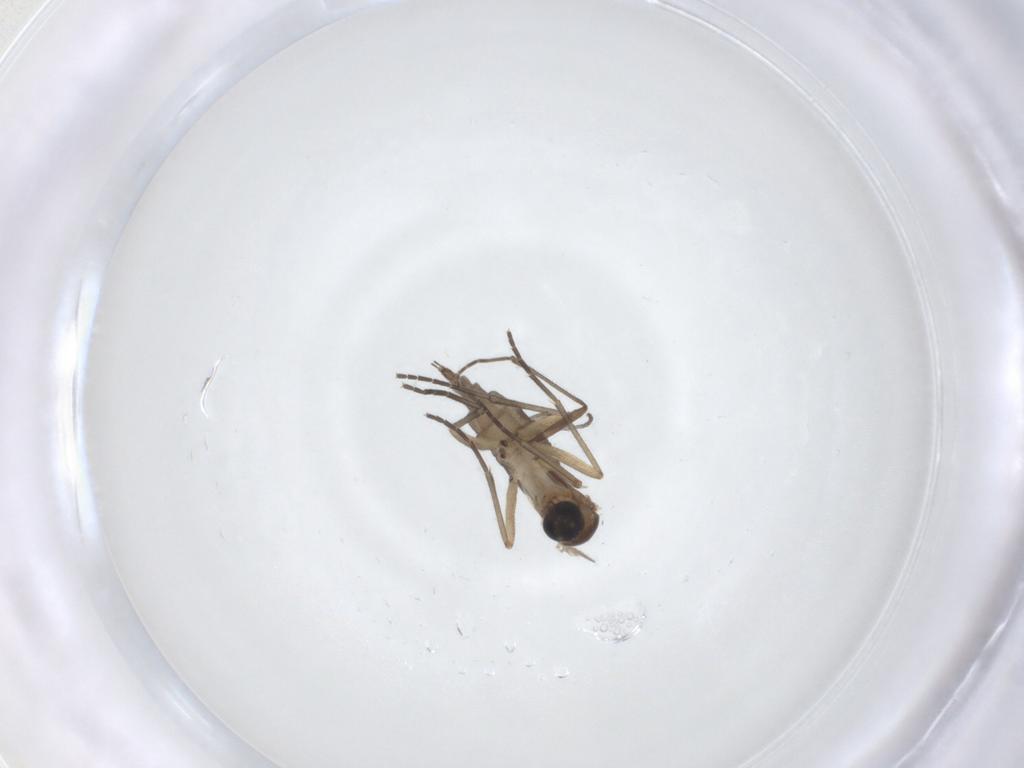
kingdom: Animalia
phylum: Arthropoda
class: Insecta
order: Diptera
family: Sciaridae
